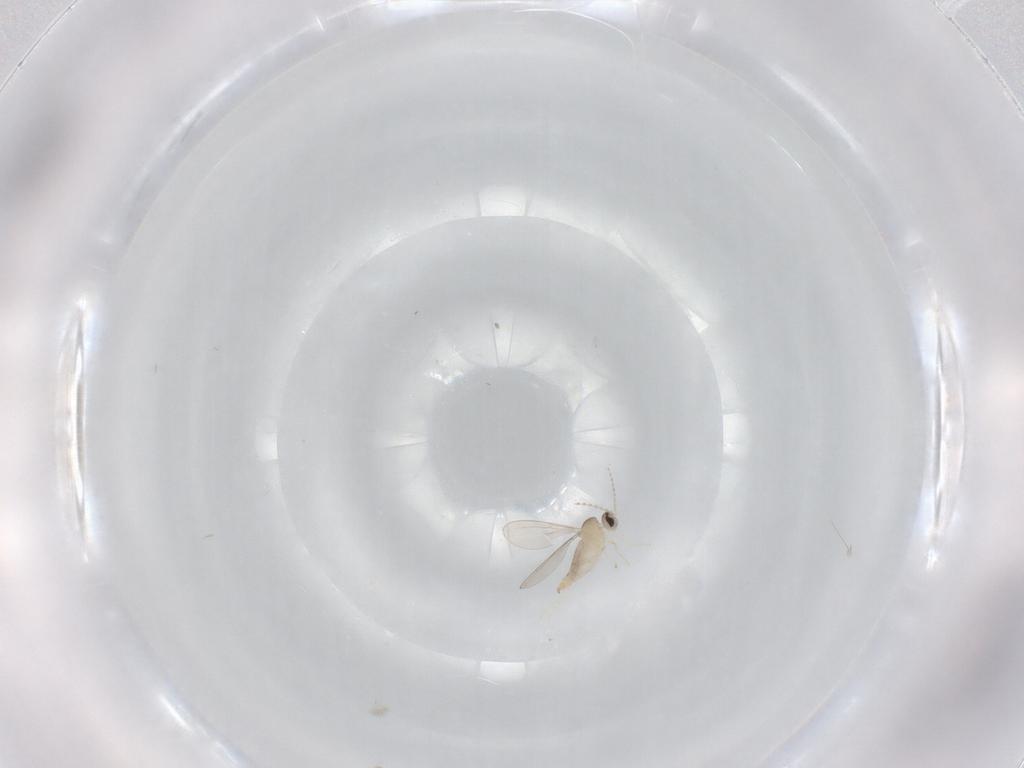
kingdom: Animalia
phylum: Arthropoda
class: Insecta
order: Diptera
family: Cecidomyiidae
